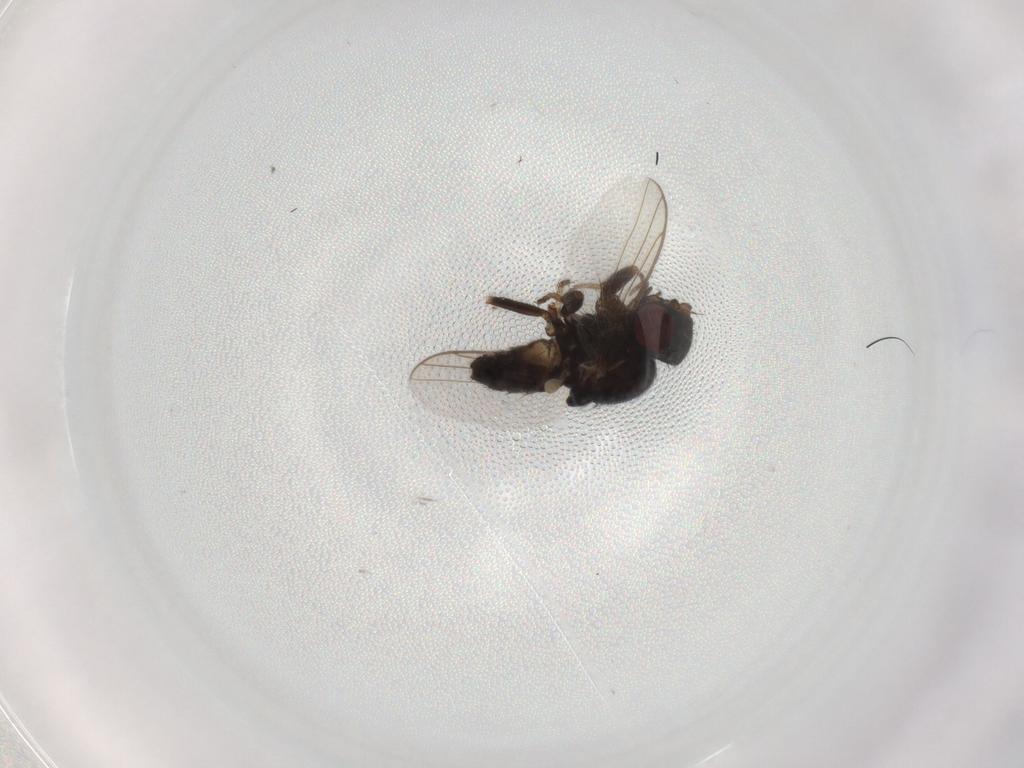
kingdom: Animalia
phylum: Arthropoda
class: Insecta
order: Diptera
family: Chloropidae
